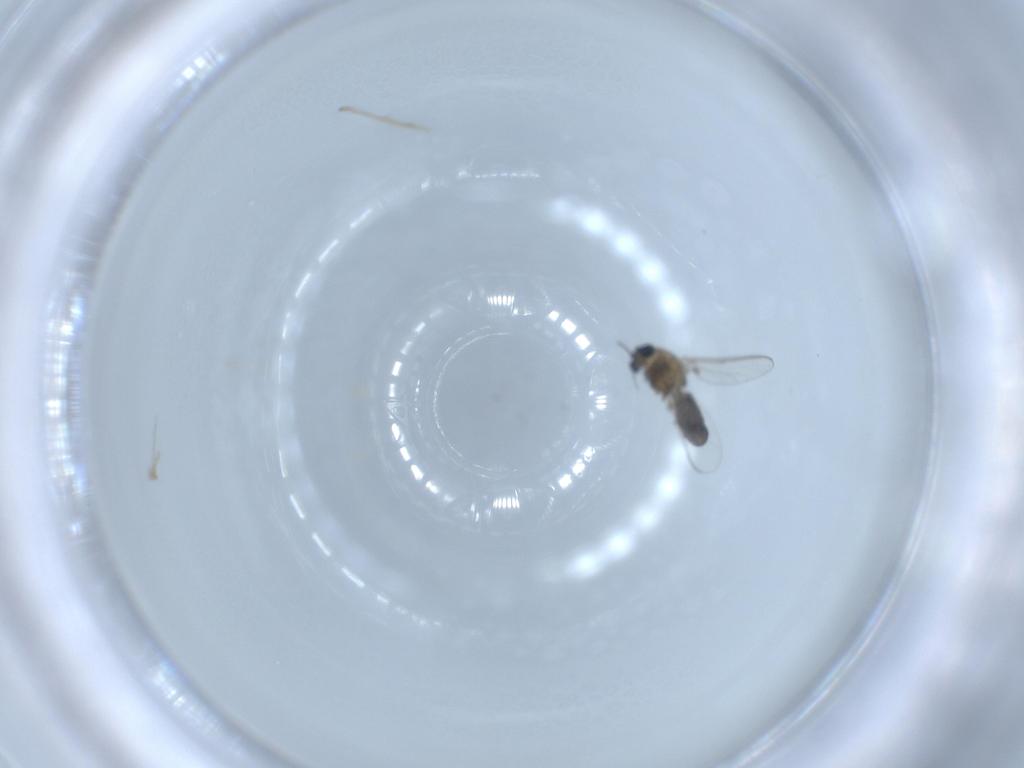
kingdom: Animalia
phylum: Arthropoda
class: Insecta
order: Diptera
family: Chironomidae
